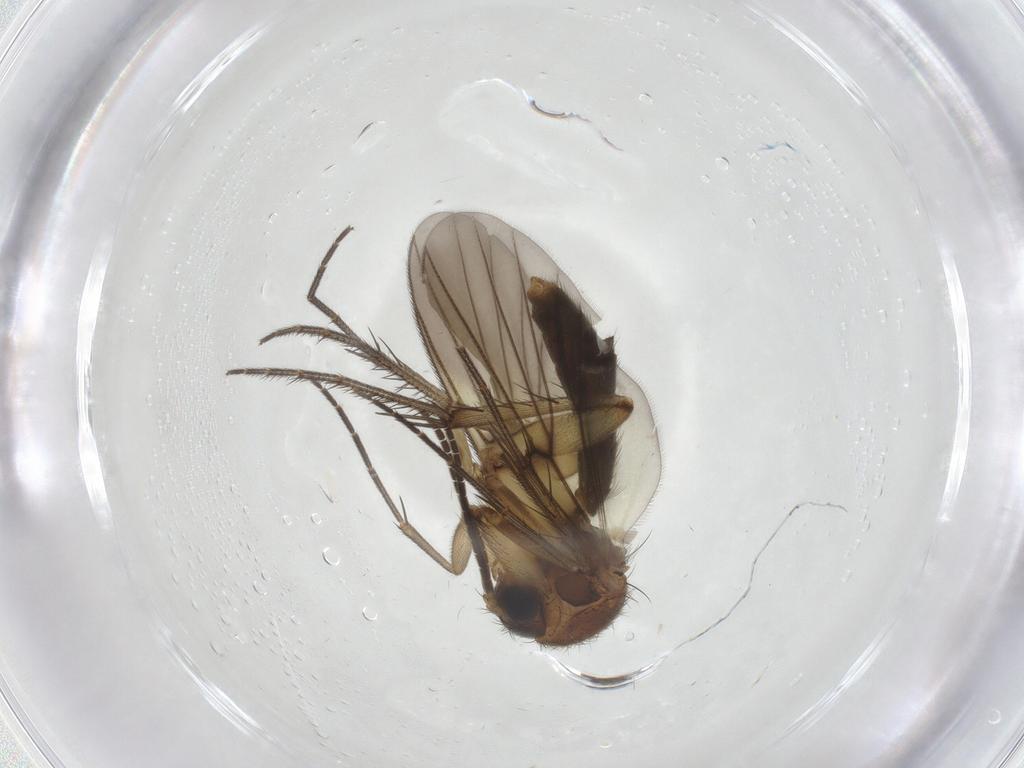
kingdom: Animalia
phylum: Arthropoda
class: Insecta
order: Diptera
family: Mycetophilidae
